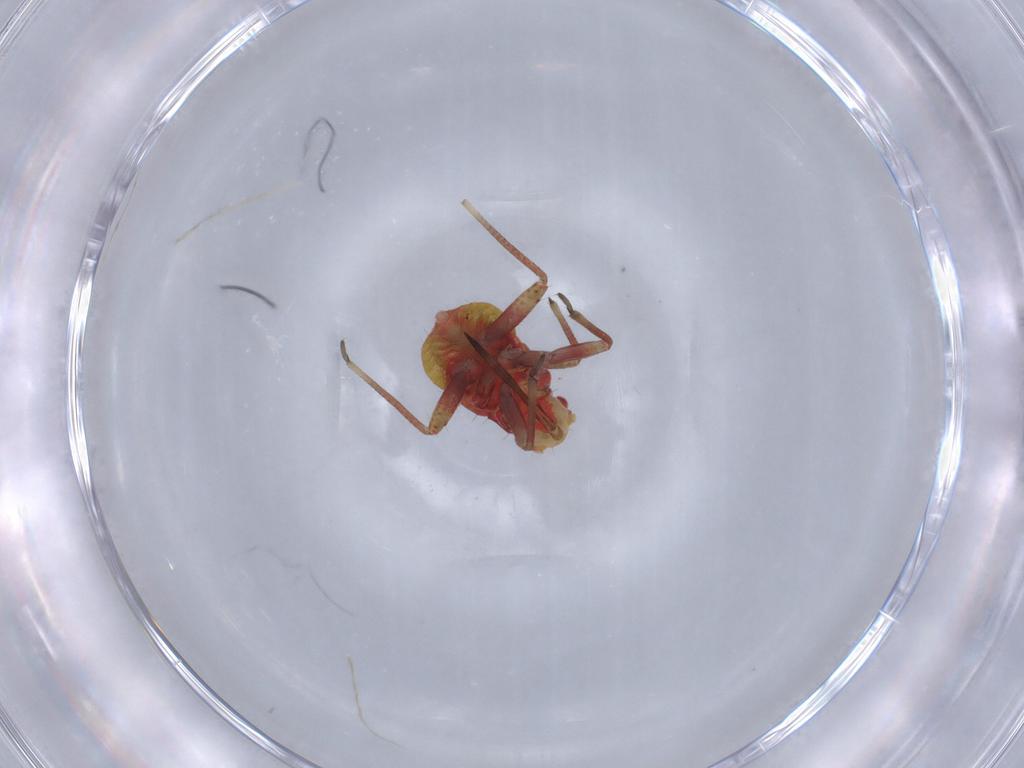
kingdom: Animalia
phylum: Arthropoda
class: Insecta
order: Hemiptera
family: Miridae
